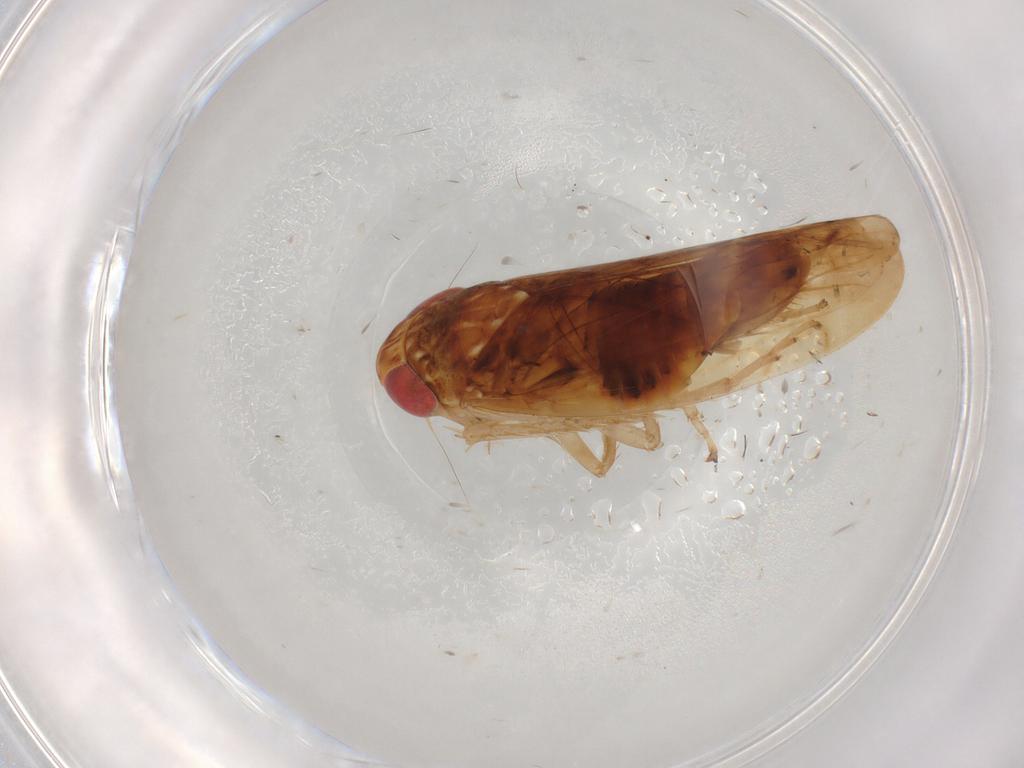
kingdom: Animalia
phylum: Arthropoda
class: Insecta
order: Hemiptera
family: Cicadellidae
